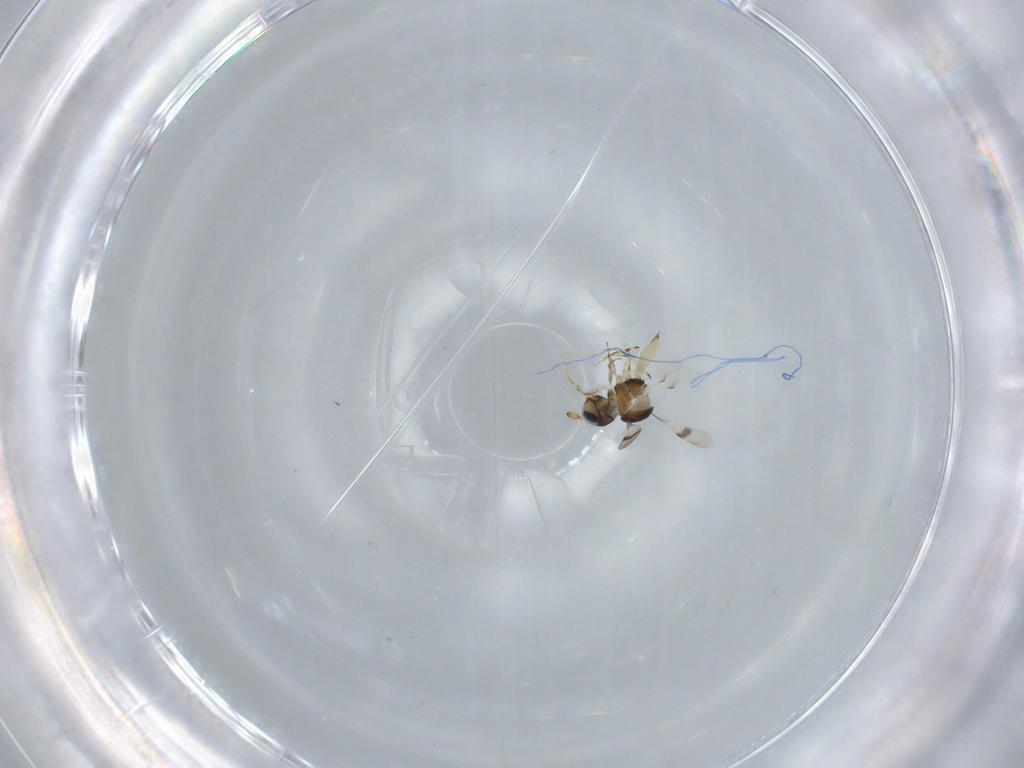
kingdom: Animalia
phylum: Arthropoda
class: Insecta
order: Hymenoptera
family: Scelionidae
